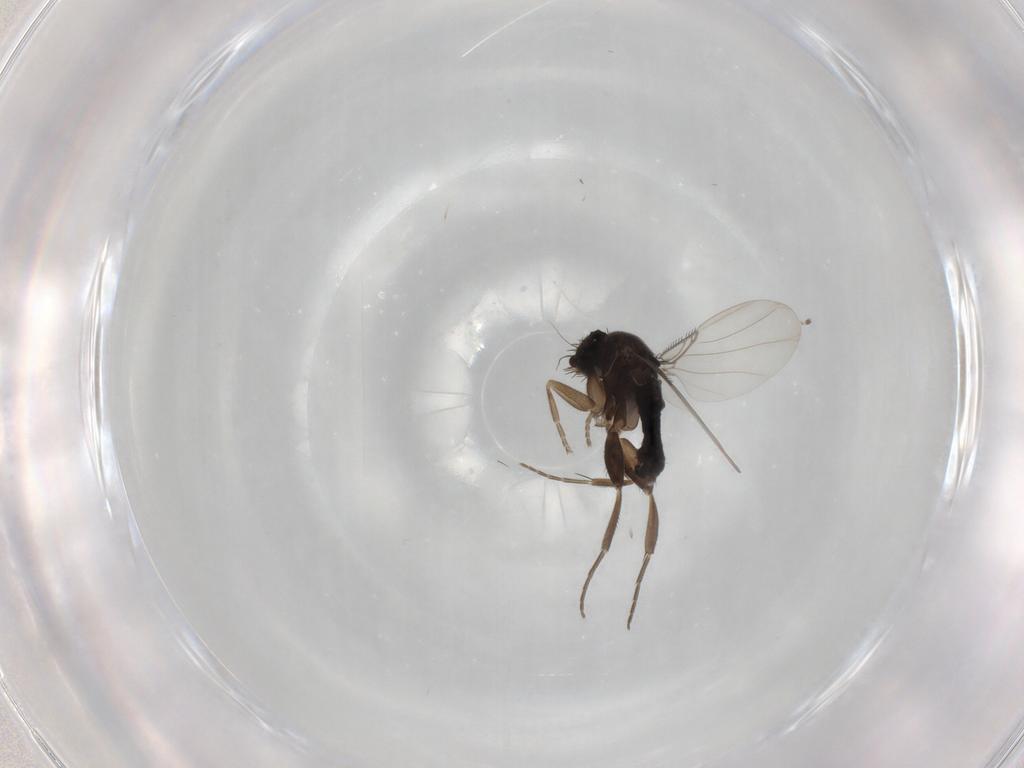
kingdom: Animalia
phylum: Arthropoda
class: Insecta
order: Diptera
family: Phoridae
